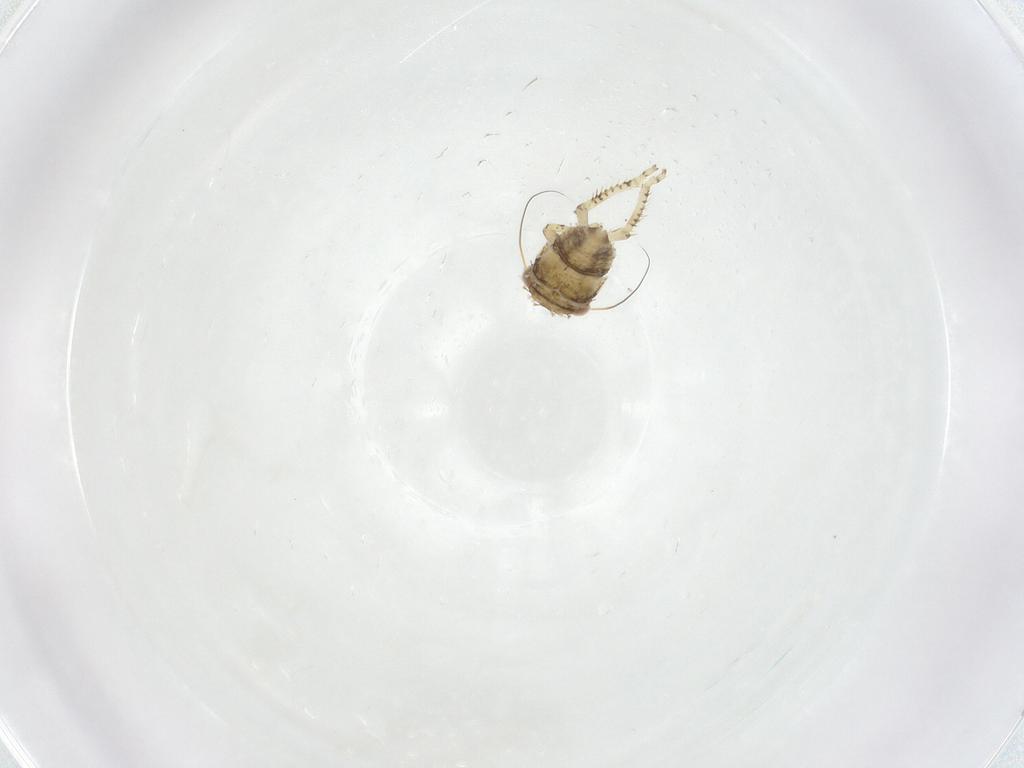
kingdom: Animalia
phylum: Arthropoda
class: Insecta
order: Hemiptera
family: Cicadellidae
